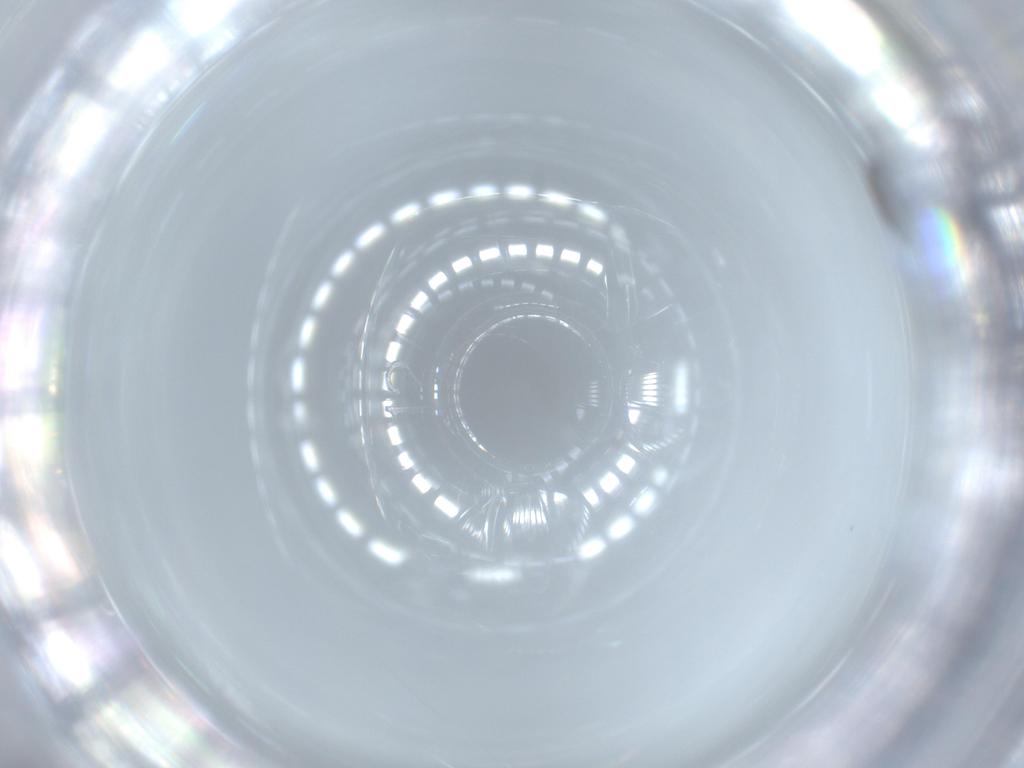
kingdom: Animalia
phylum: Arthropoda
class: Insecta
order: Diptera
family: Cecidomyiidae
